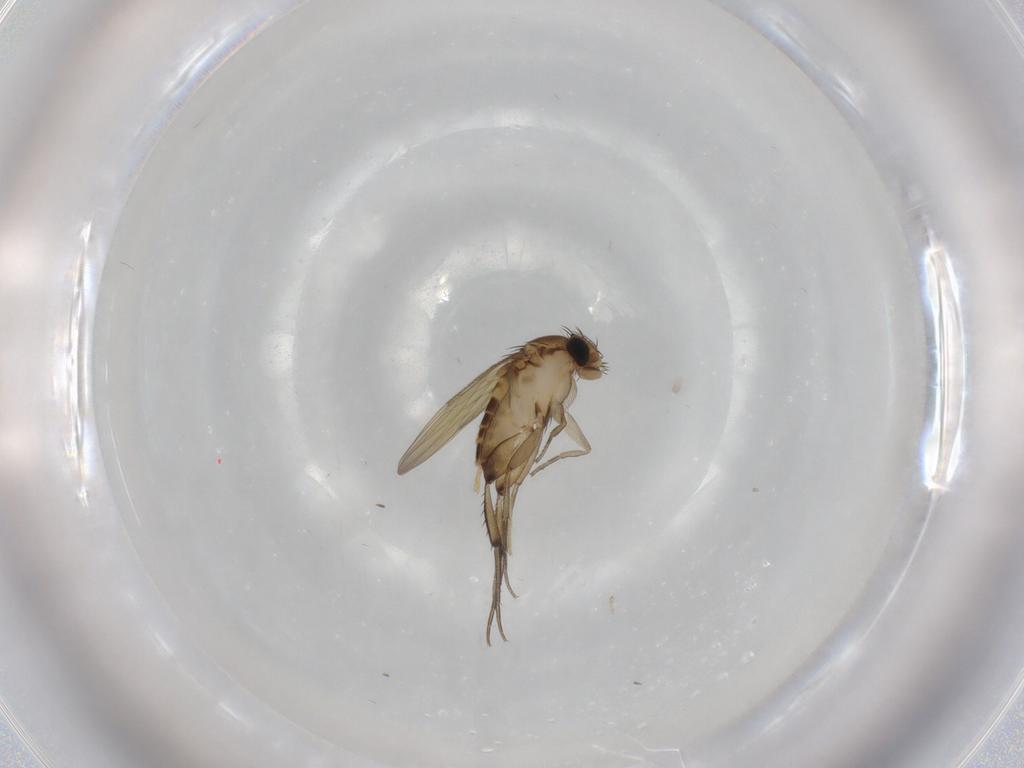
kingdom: Animalia
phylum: Arthropoda
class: Insecta
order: Diptera
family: Phoridae
